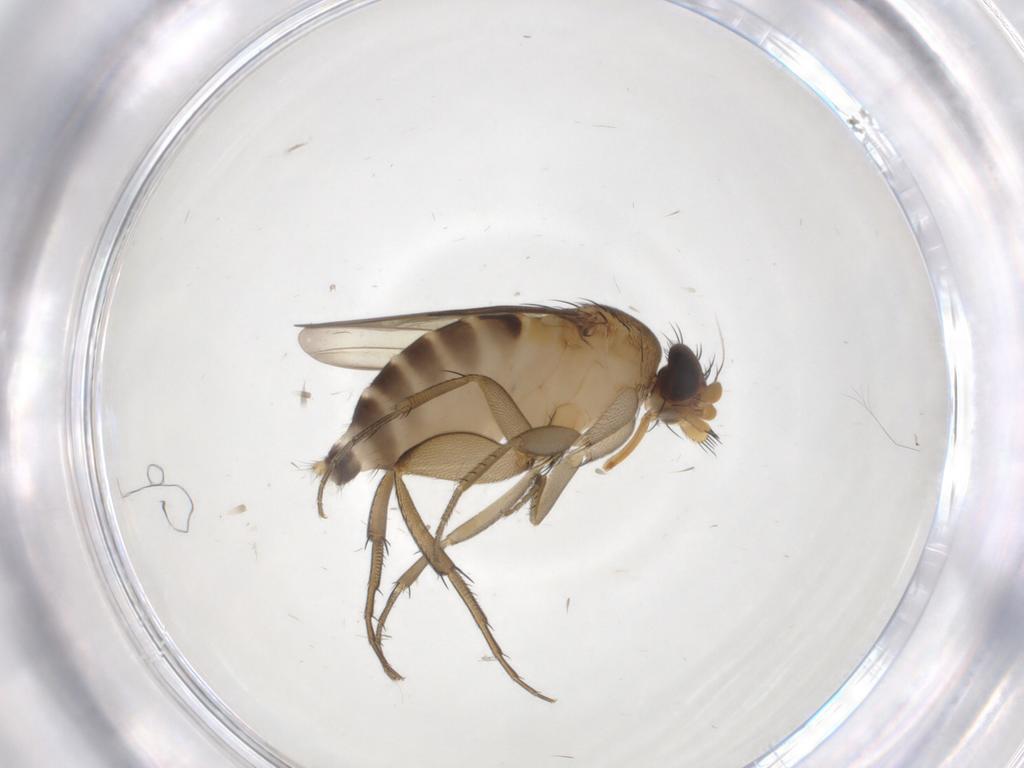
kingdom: Animalia
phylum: Arthropoda
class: Insecta
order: Diptera
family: Phoridae
